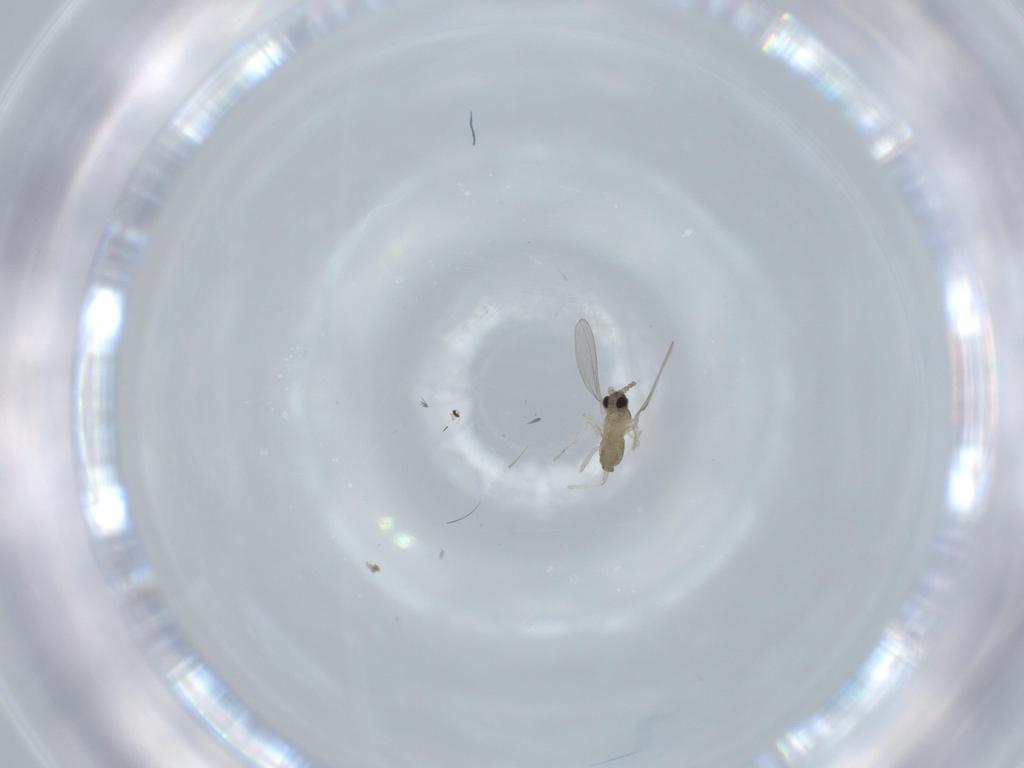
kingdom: Animalia
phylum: Arthropoda
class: Insecta
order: Diptera
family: Cecidomyiidae
